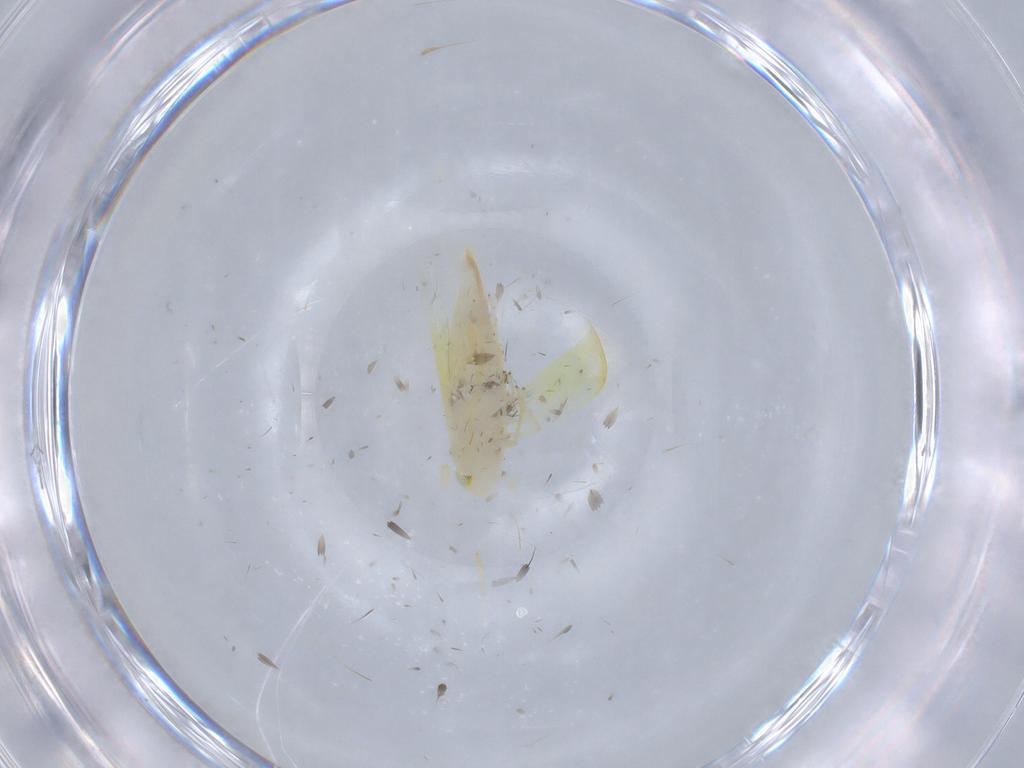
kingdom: Animalia
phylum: Arthropoda
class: Insecta
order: Hemiptera
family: Cicadellidae
